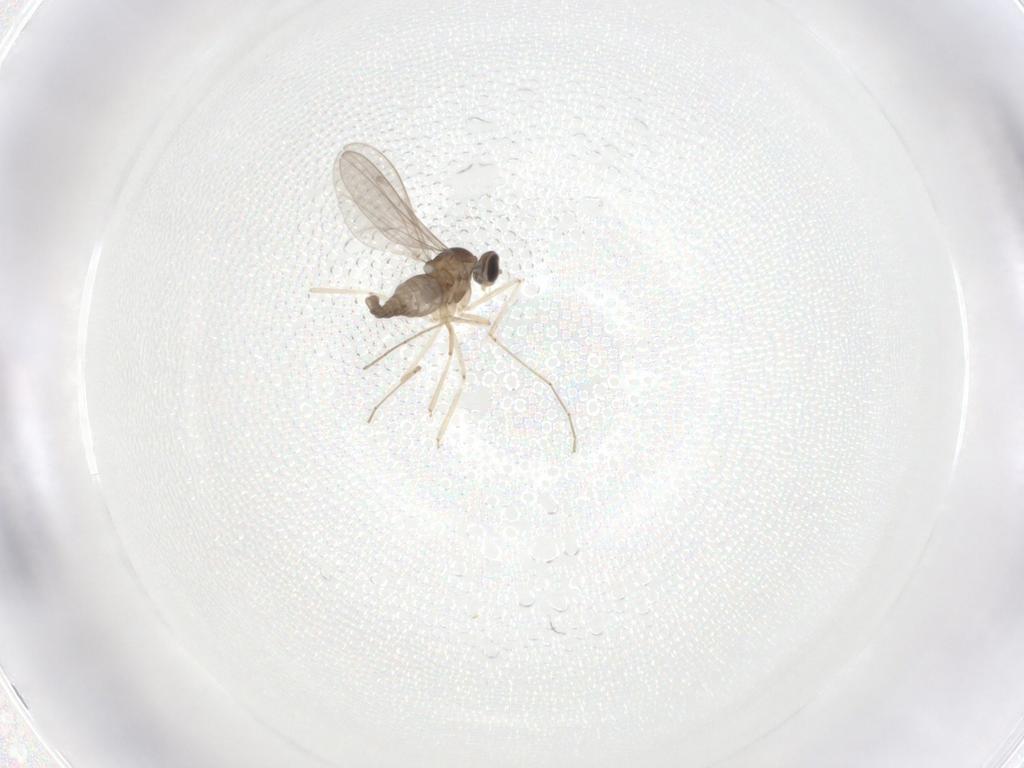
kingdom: Animalia
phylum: Arthropoda
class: Insecta
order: Diptera
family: Cecidomyiidae
